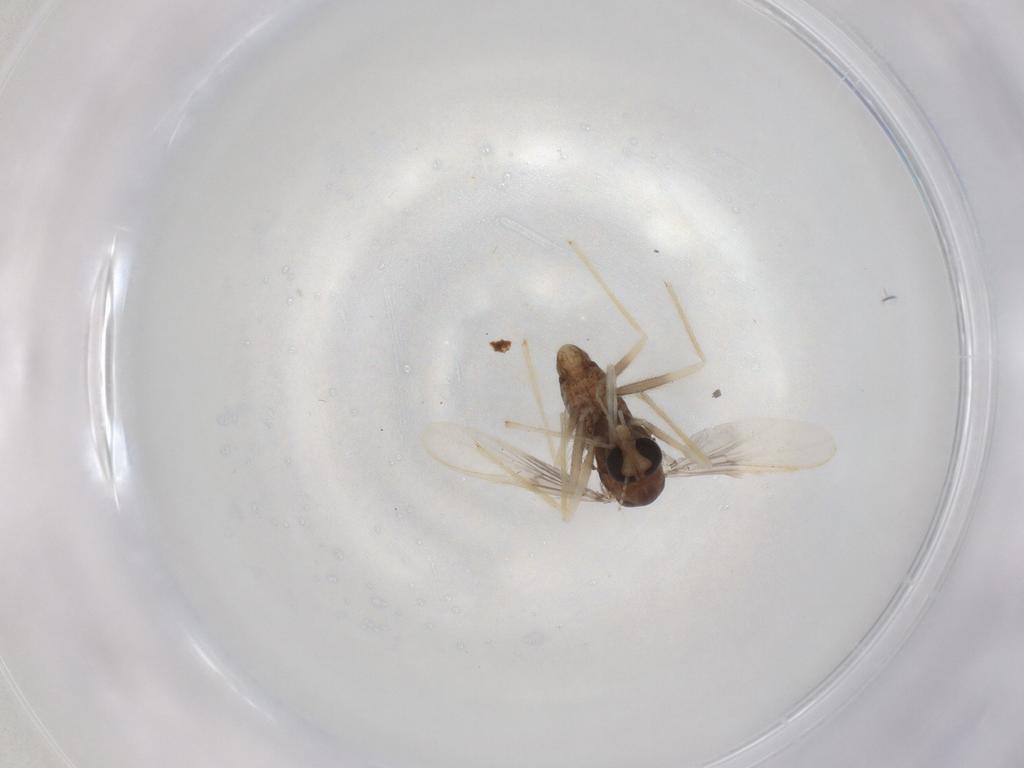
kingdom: Animalia
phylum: Arthropoda
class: Insecta
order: Diptera
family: Chironomidae
